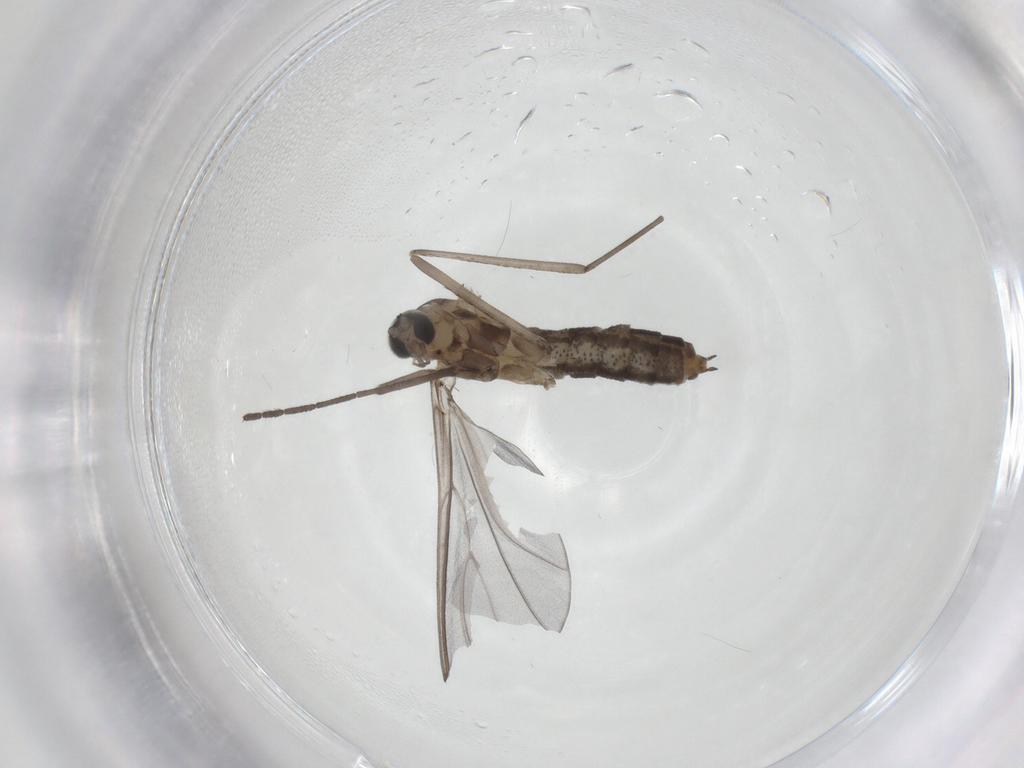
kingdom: Animalia
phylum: Arthropoda
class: Insecta
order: Diptera
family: Cecidomyiidae
